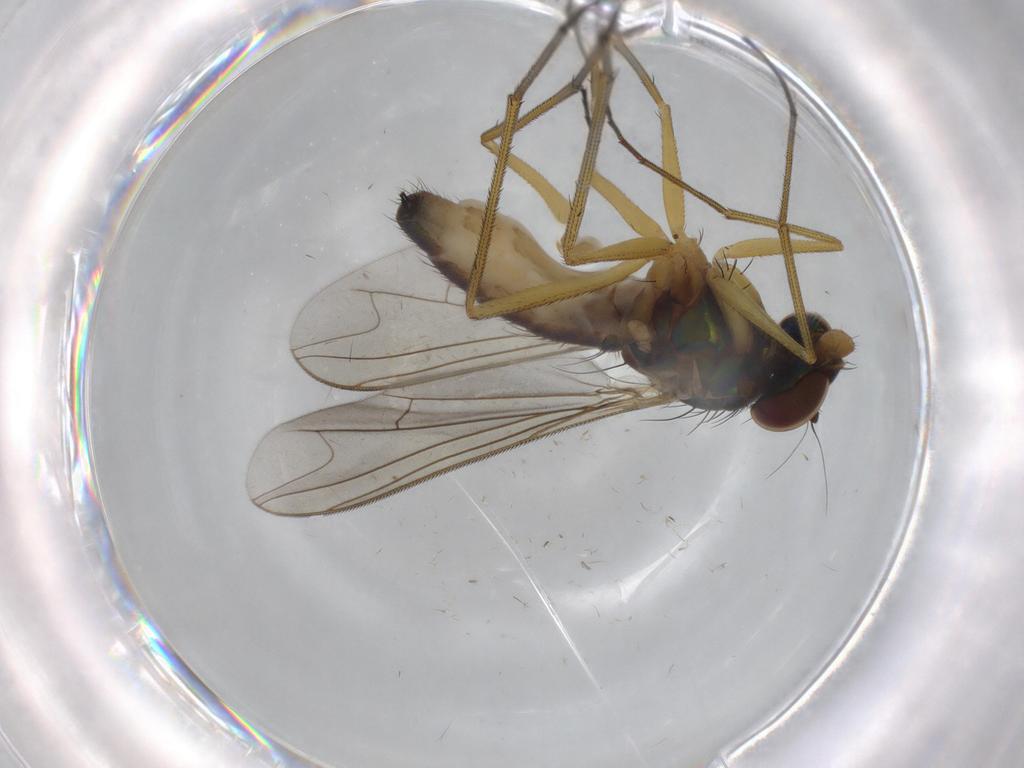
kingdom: Animalia
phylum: Arthropoda
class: Insecta
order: Diptera
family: Dolichopodidae
